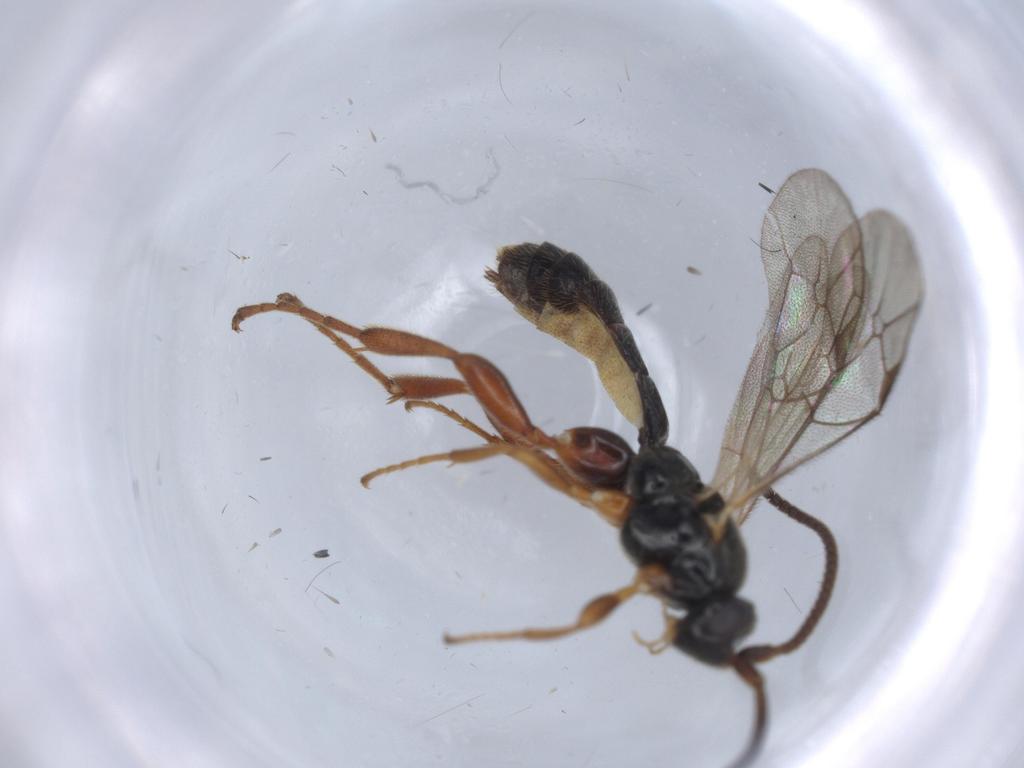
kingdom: Animalia
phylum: Arthropoda
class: Insecta
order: Hymenoptera
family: Ichneumonidae
